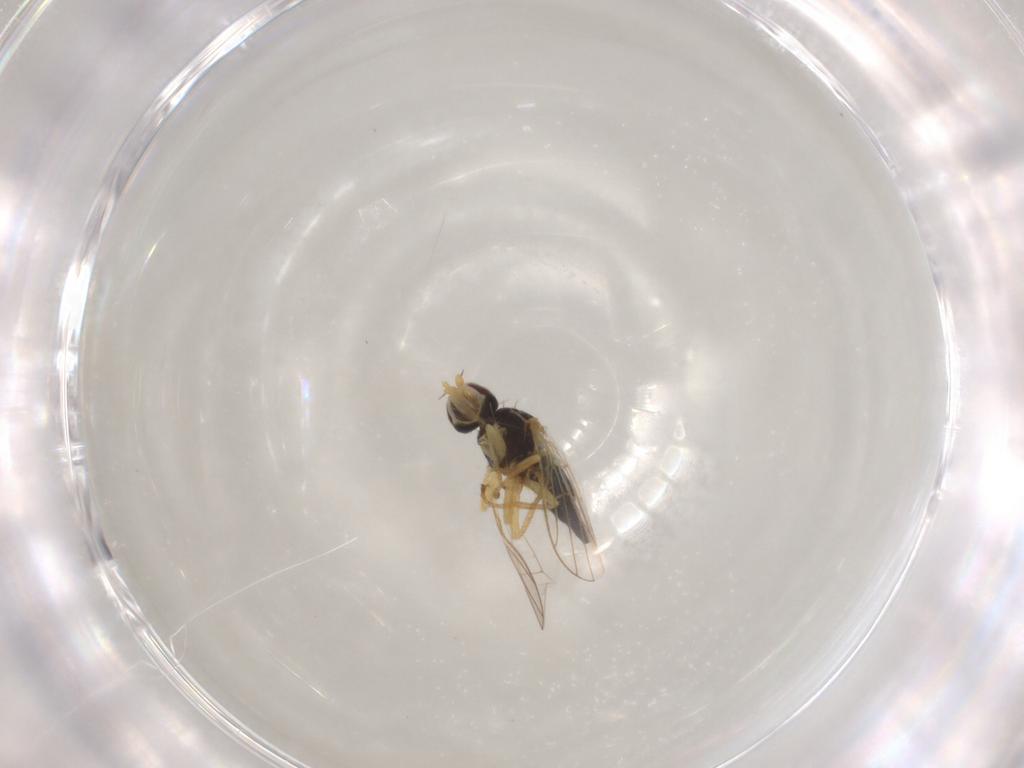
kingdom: Animalia
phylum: Arthropoda
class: Insecta
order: Diptera
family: Tephritidae
